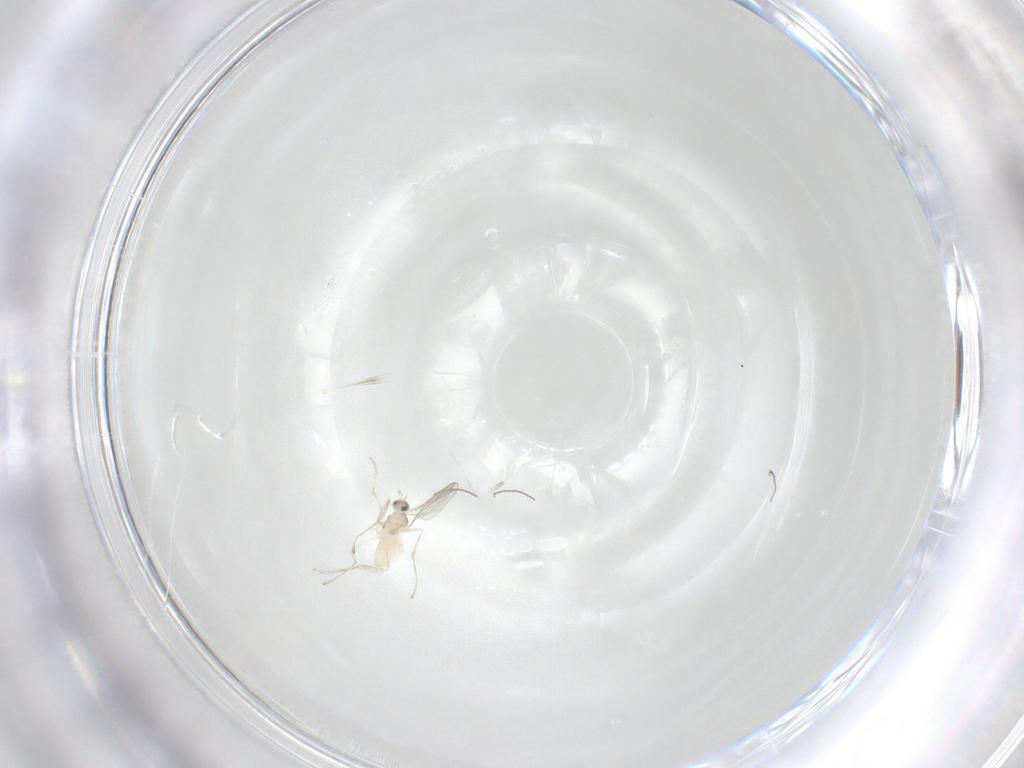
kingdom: Animalia
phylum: Arthropoda
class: Insecta
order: Diptera
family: Cecidomyiidae
